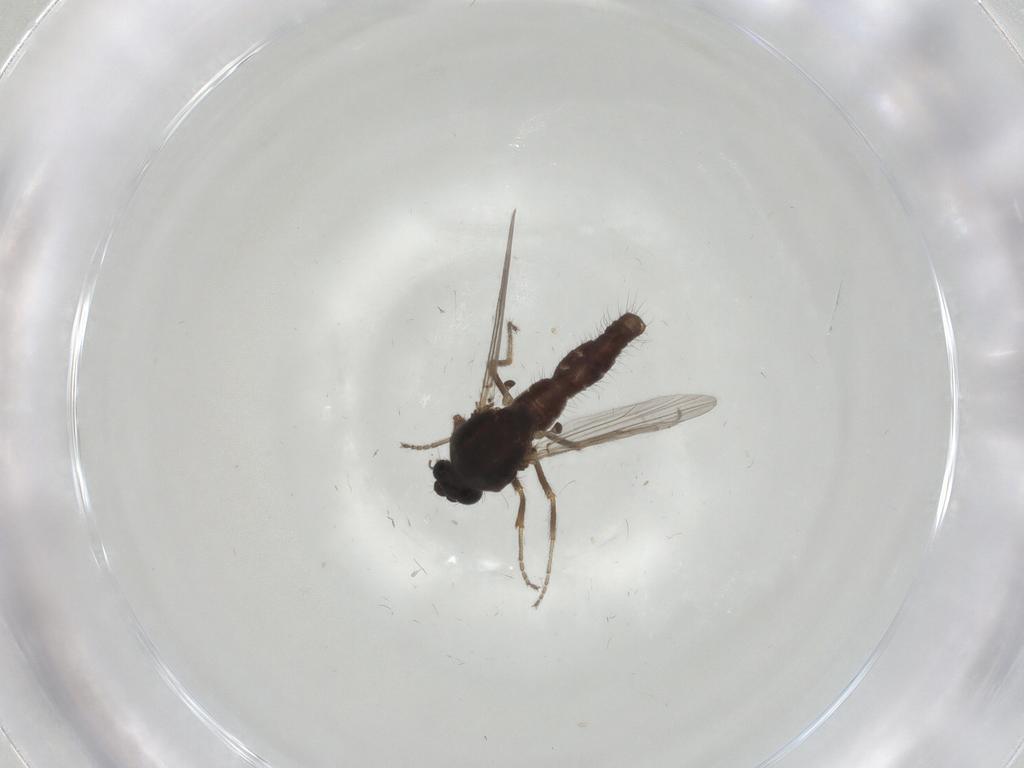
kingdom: Animalia
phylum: Arthropoda
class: Insecta
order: Diptera
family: Ceratopogonidae
